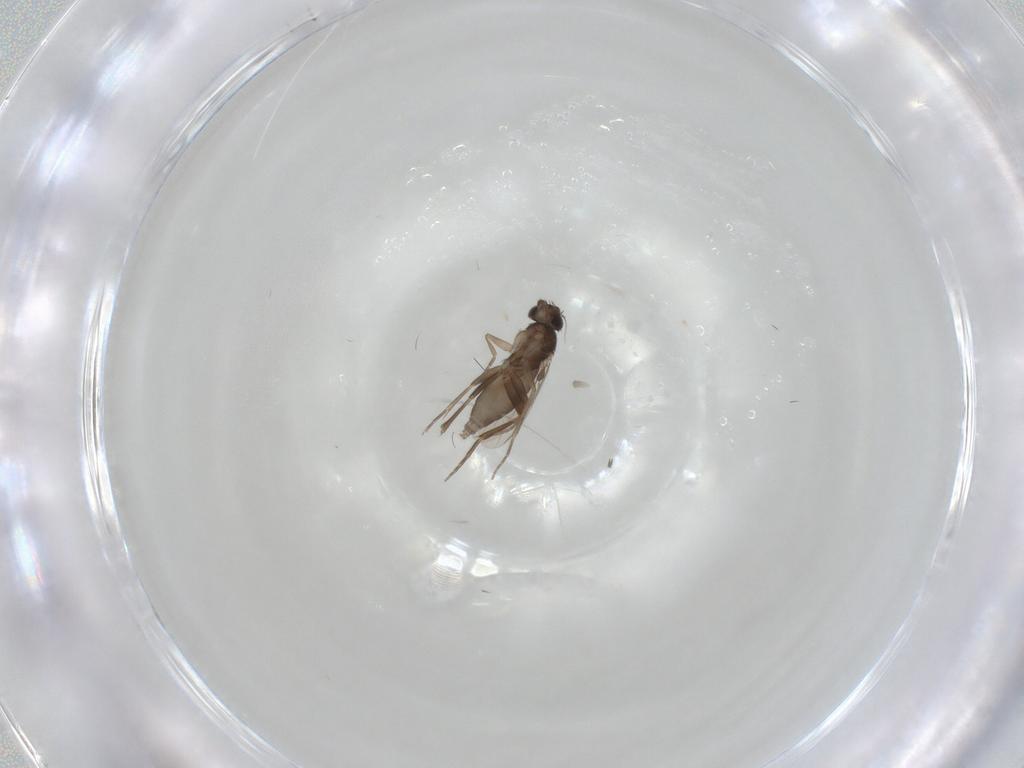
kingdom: Animalia
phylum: Arthropoda
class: Insecta
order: Diptera
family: Phoridae
